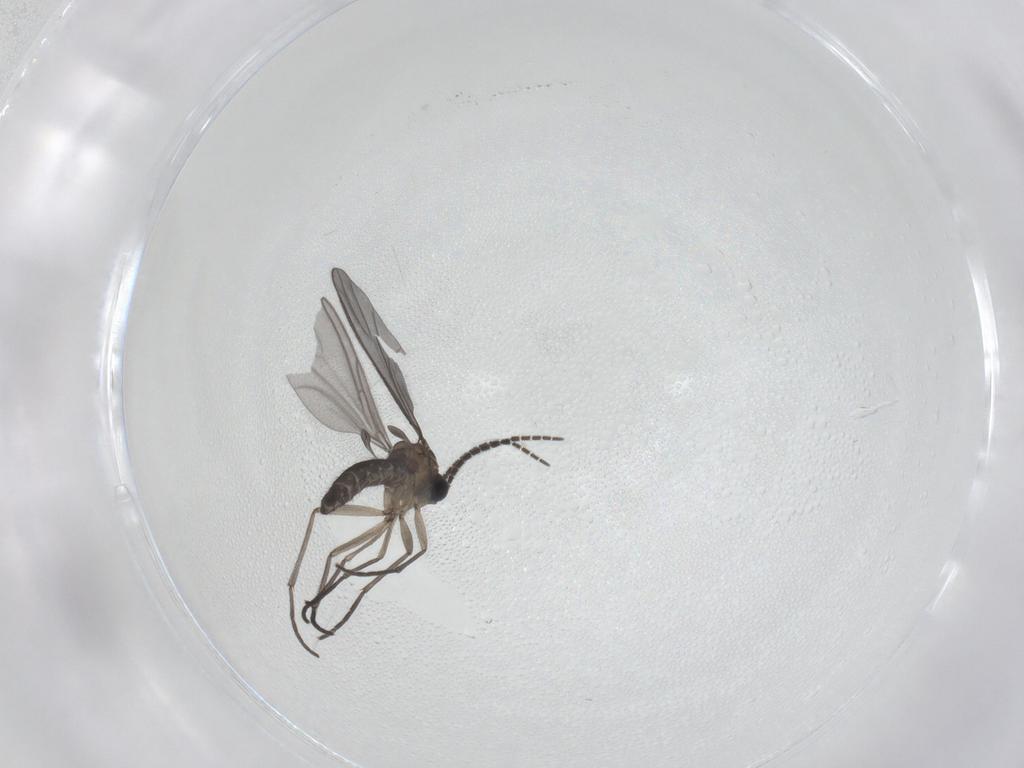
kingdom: Animalia
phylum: Arthropoda
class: Insecta
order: Diptera
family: Sciaridae
